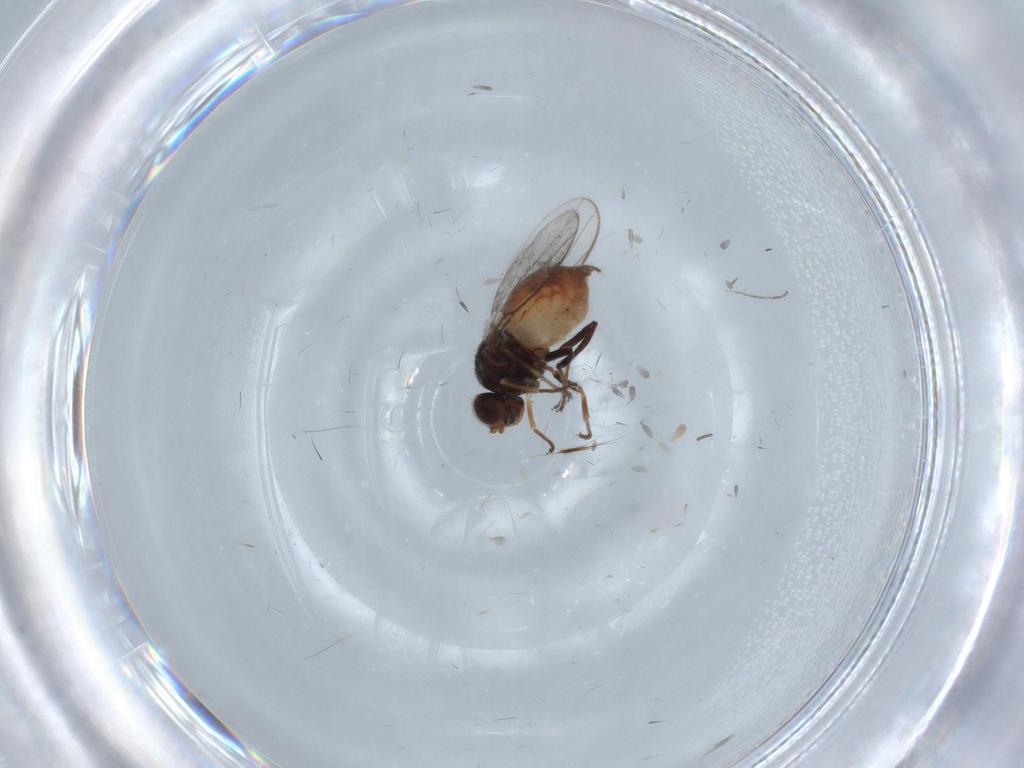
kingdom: Animalia
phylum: Arthropoda
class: Insecta
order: Diptera
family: Chloropidae
